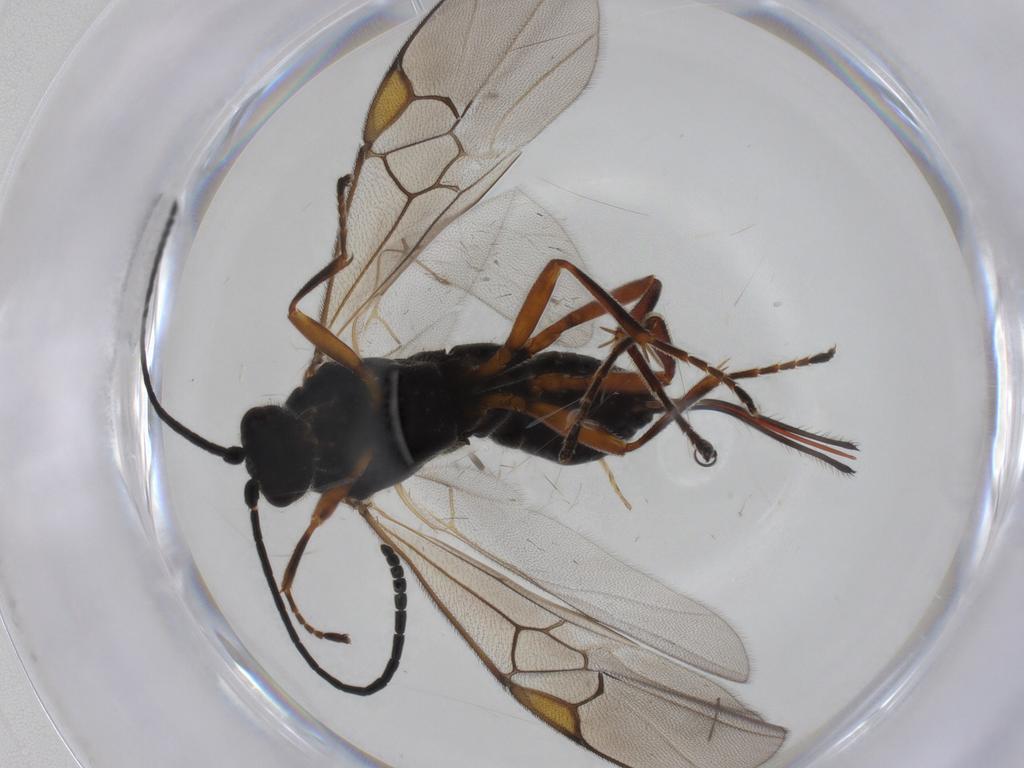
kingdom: Animalia
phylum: Arthropoda
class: Insecta
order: Hymenoptera
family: Braconidae
